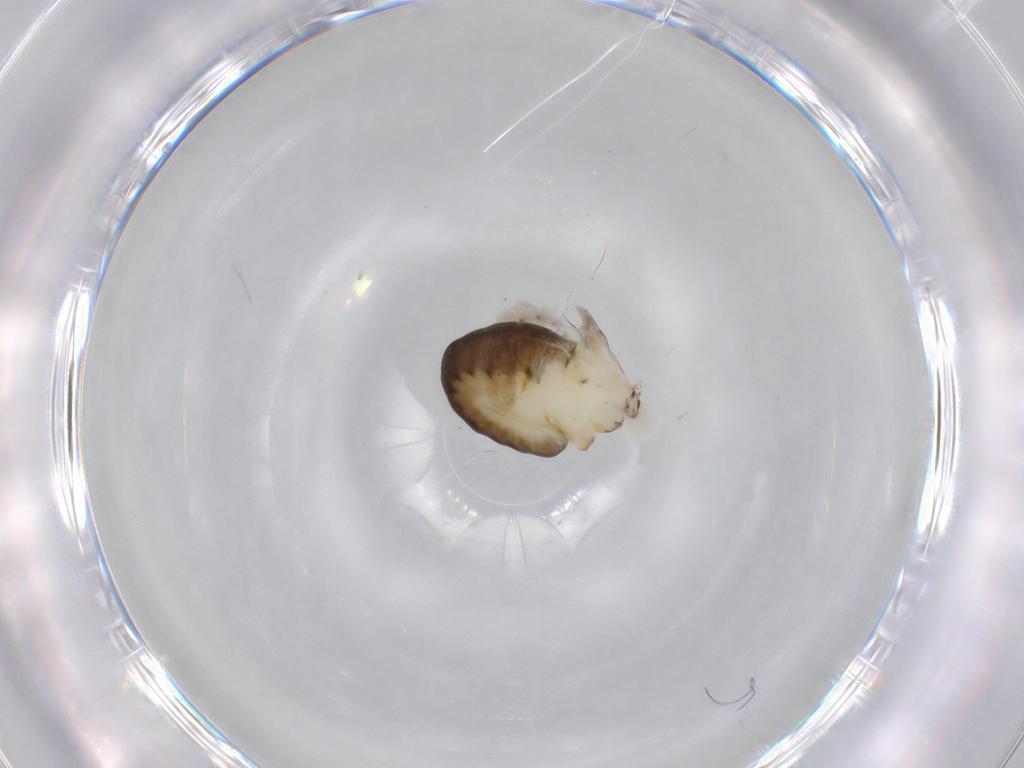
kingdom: Animalia
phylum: Arthropoda
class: Insecta
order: Hymenoptera
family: Dryinidae
